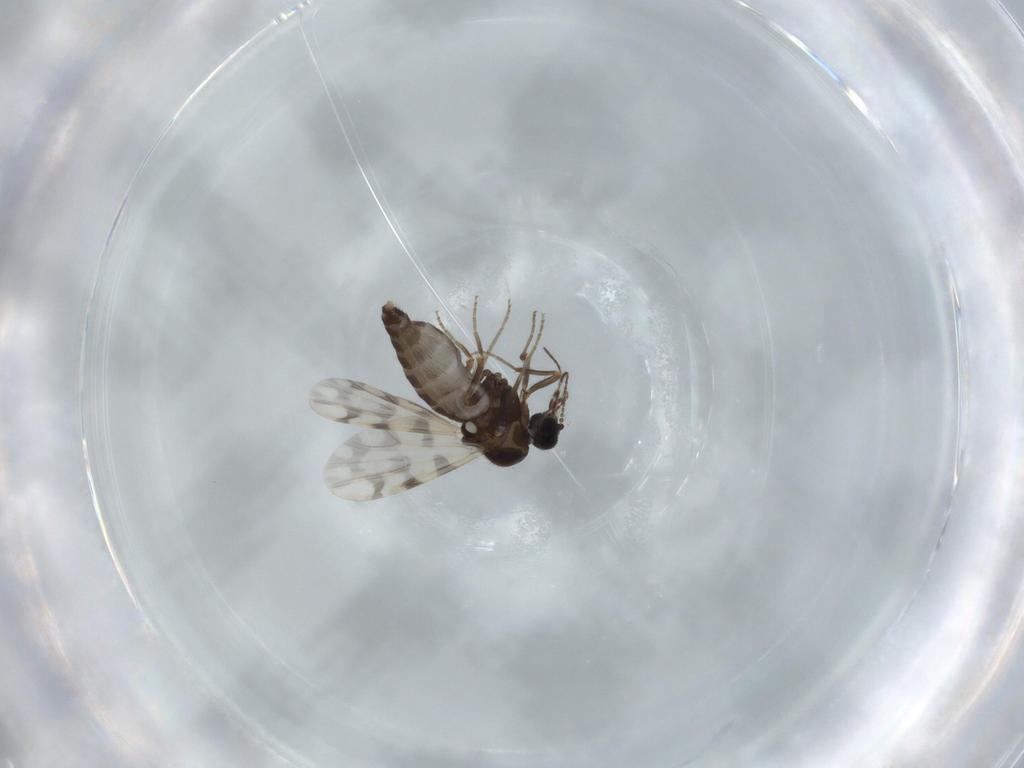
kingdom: Animalia
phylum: Arthropoda
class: Insecta
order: Diptera
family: Ceratopogonidae
